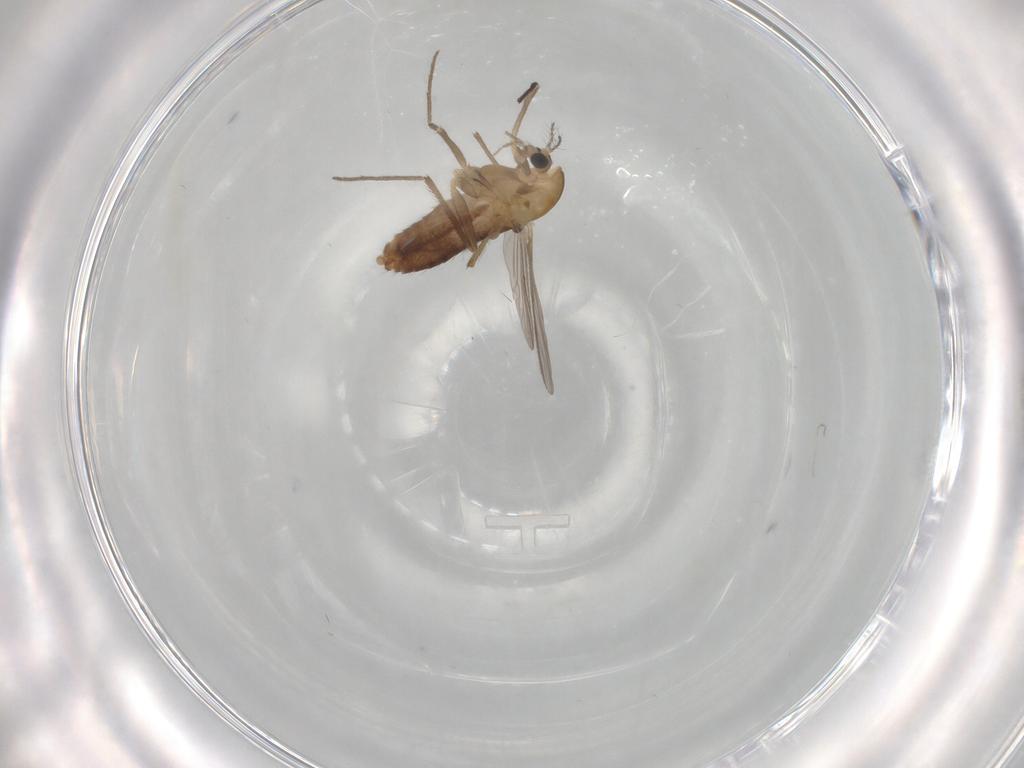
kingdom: Animalia
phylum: Arthropoda
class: Insecta
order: Diptera
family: Chironomidae
